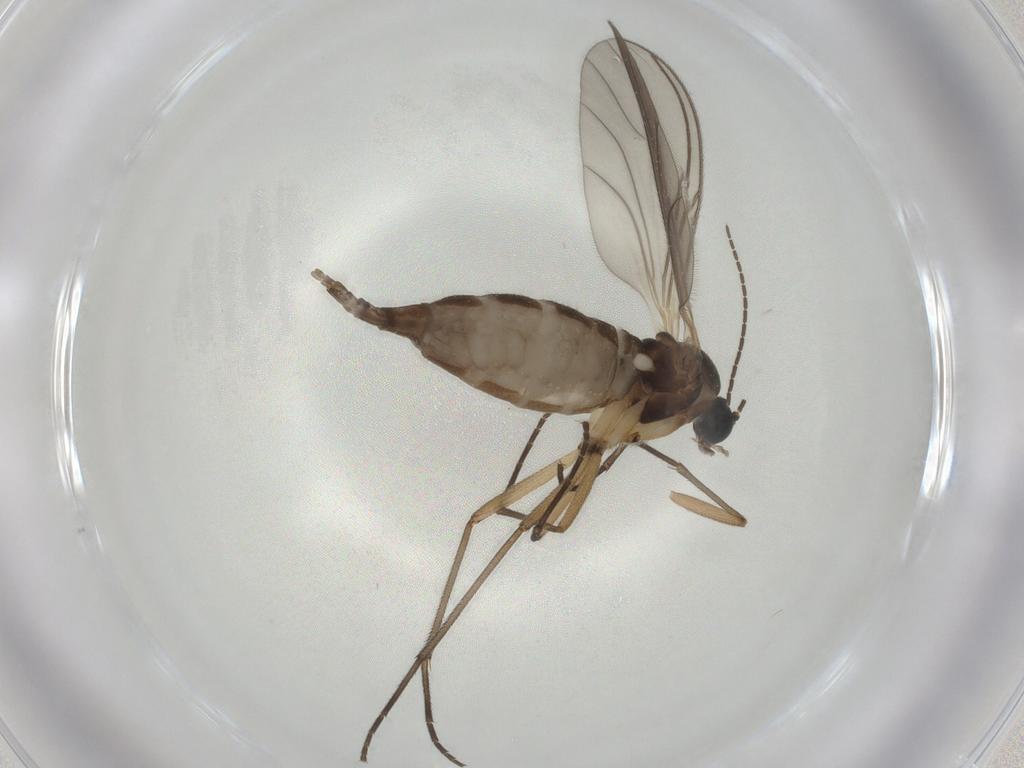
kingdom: Animalia
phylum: Arthropoda
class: Insecta
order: Diptera
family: Sciaridae
